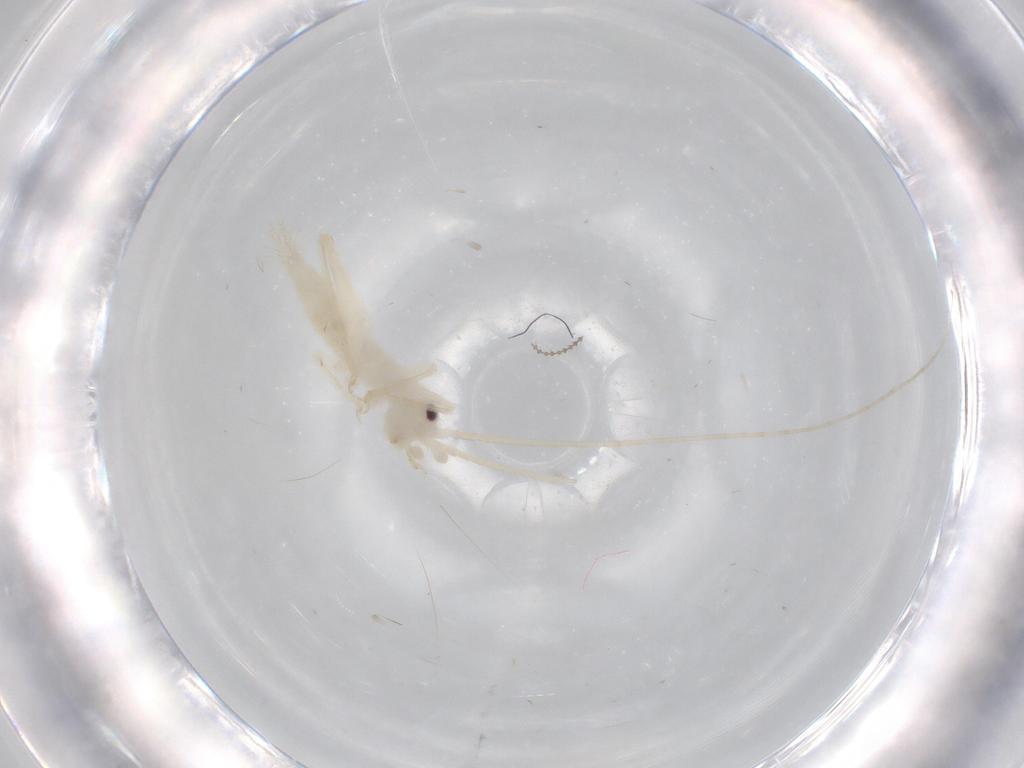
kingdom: Animalia
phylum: Arthropoda
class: Insecta
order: Orthoptera
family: Trigonidiidae
